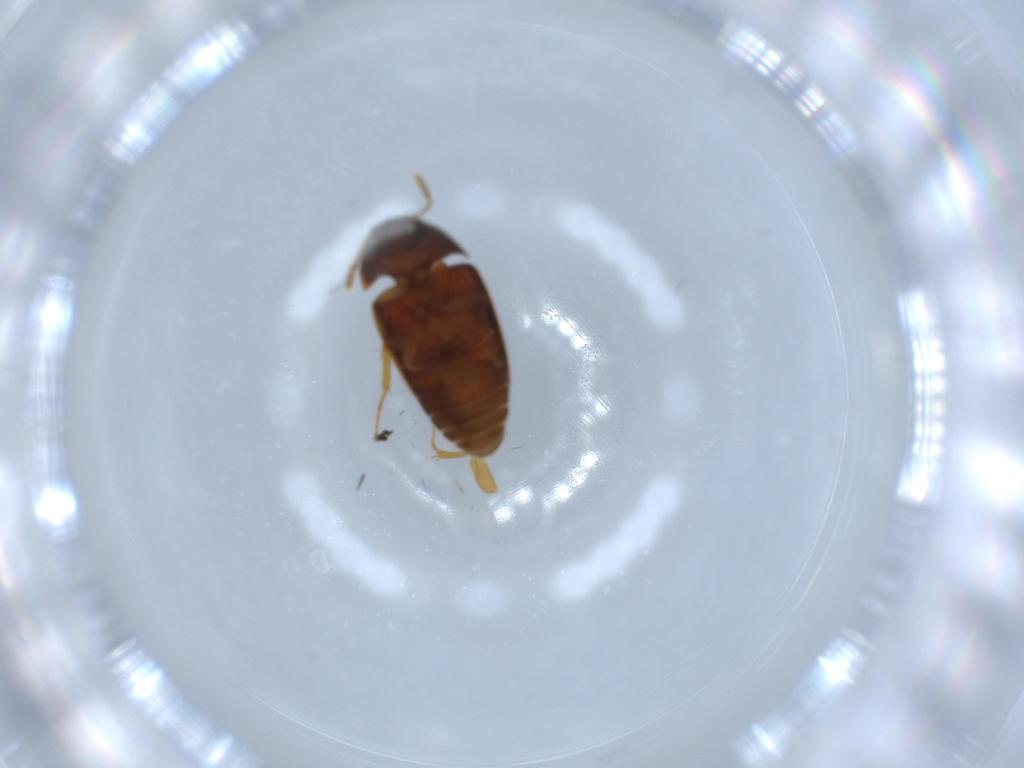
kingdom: Animalia
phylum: Arthropoda
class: Insecta
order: Coleoptera
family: Mycetophagidae
